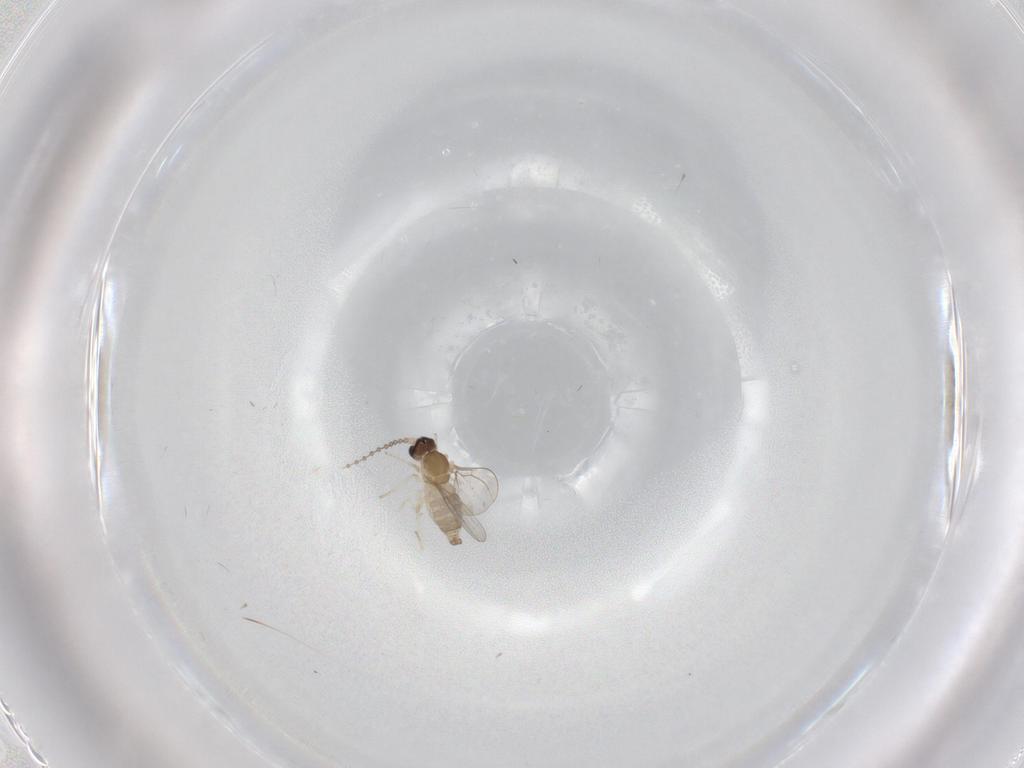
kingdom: Animalia
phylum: Arthropoda
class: Insecta
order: Diptera
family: Cecidomyiidae
